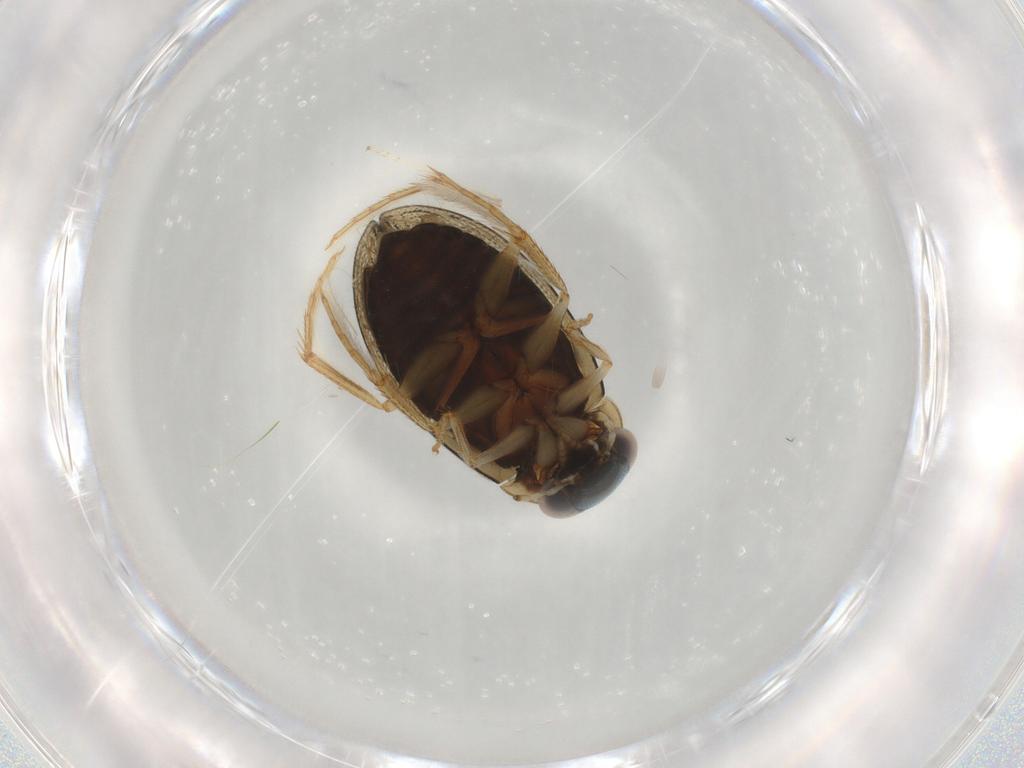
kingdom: Animalia
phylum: Arthropoda
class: Insecta
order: Coleoptera
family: Hydrophilidae
